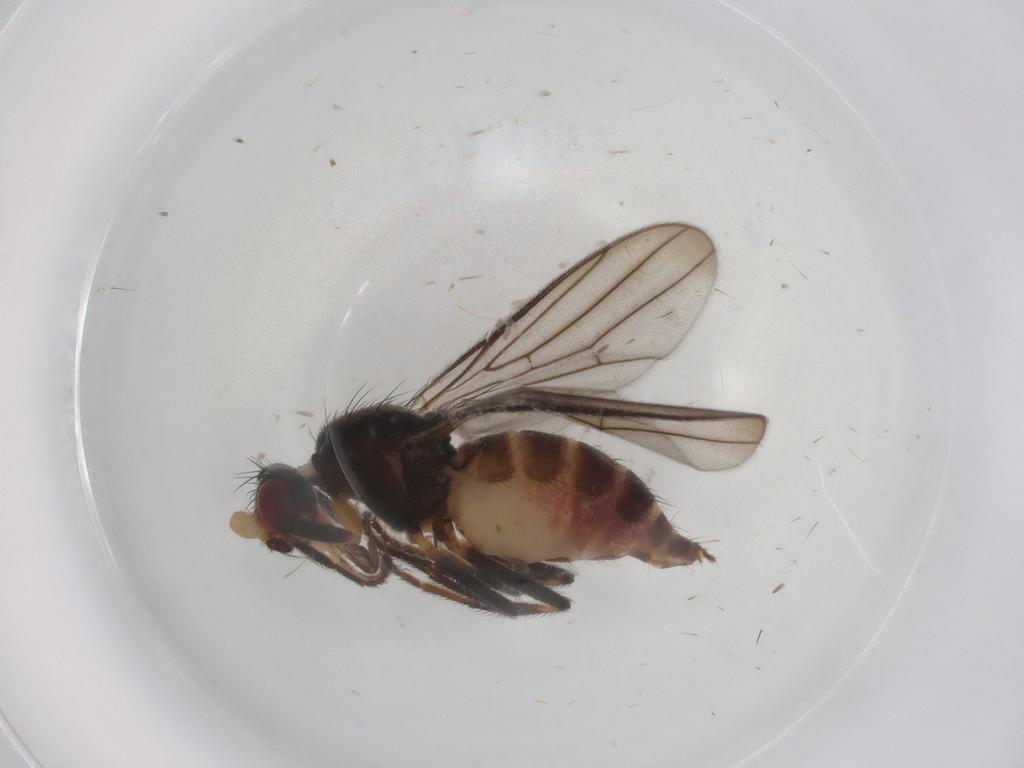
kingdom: Animalia
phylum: Arthropoda
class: Insecta
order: Diptera
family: Chloropidae
